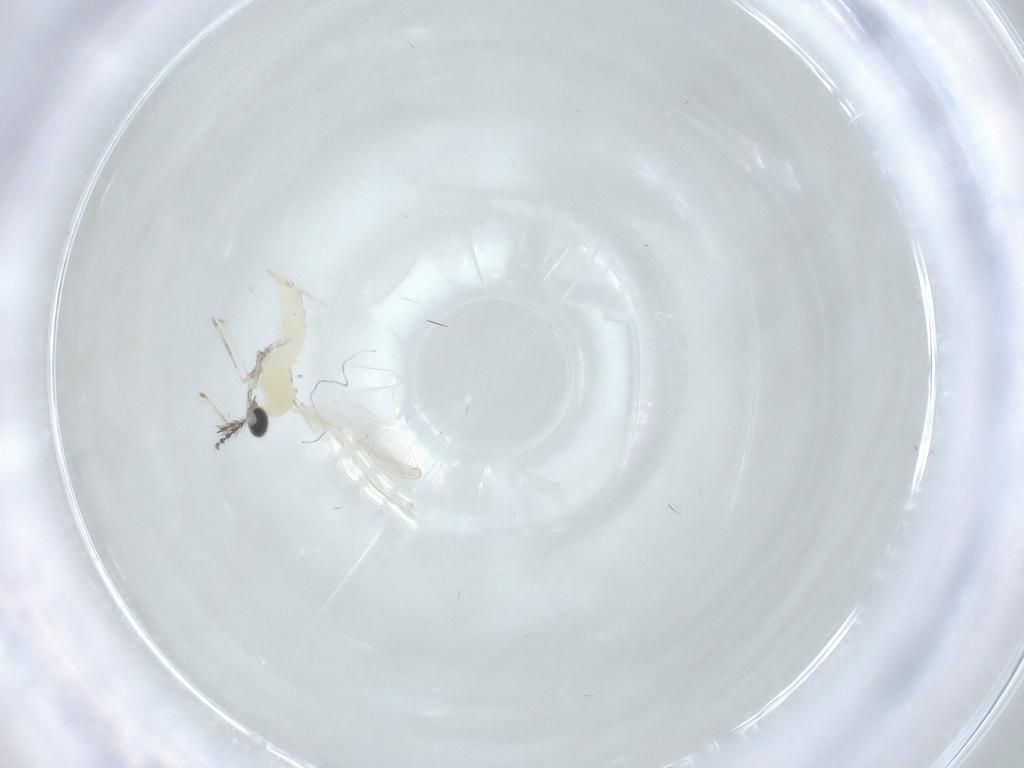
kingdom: Animalia
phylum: Arthropoda
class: Insecta
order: Diptera
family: Cecidomyiidae
